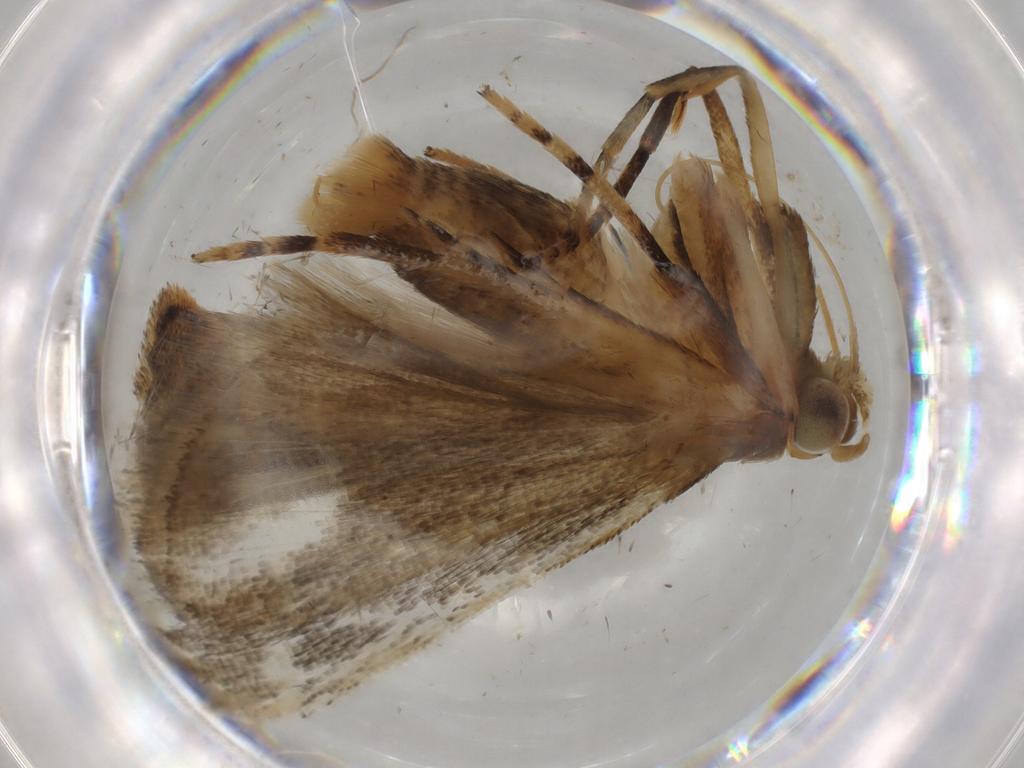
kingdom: Animalia
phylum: Arthropoda
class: Insecta
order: Lepidoptera
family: Gelechiidae
